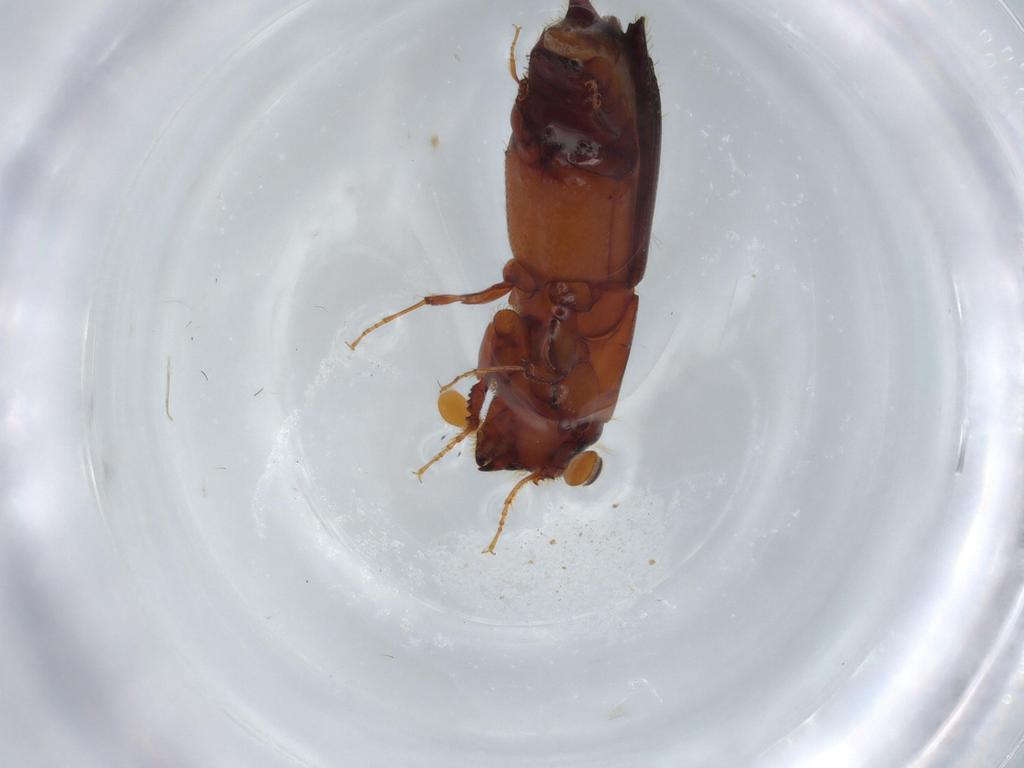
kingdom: Animalia
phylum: Arthropoda
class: Insecta
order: Coleoptera
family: Curculionidae
